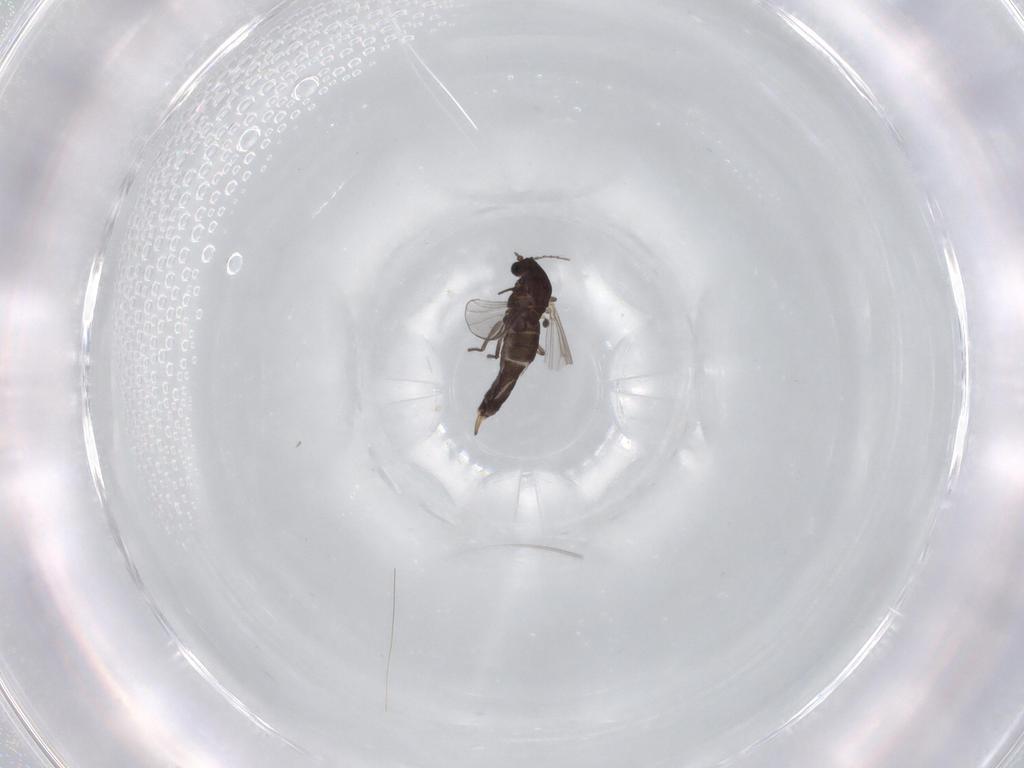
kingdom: Animalia
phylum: Arthropoda
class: Insecta
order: Diptera
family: Chironomidae
